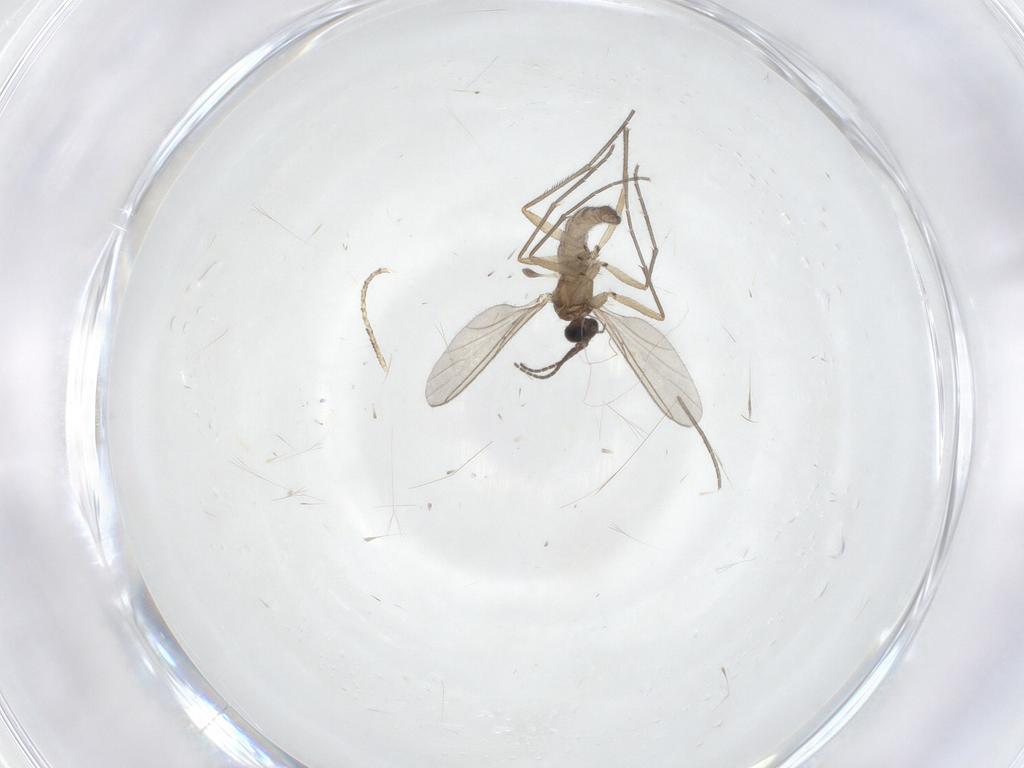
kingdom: Animalia
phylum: Arthropoda
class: Insecta
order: Diptera
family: Sciaridae
